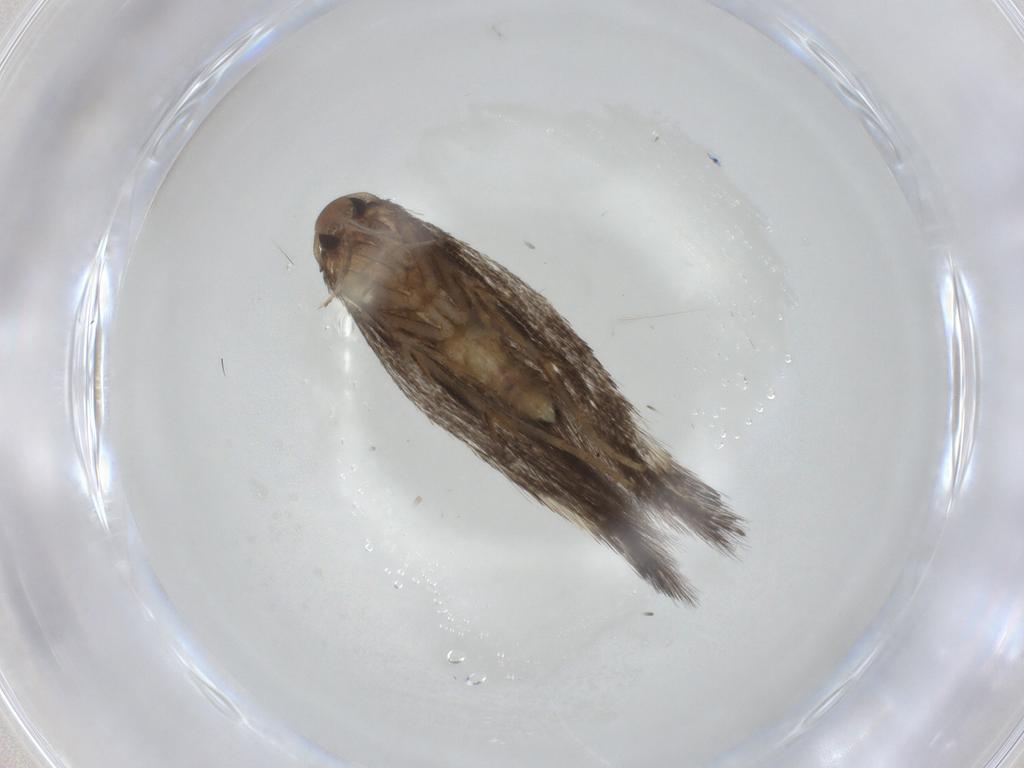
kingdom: Animalia
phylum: Arthropoda
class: Insecta
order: Lepidoptera
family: Elachistidae
